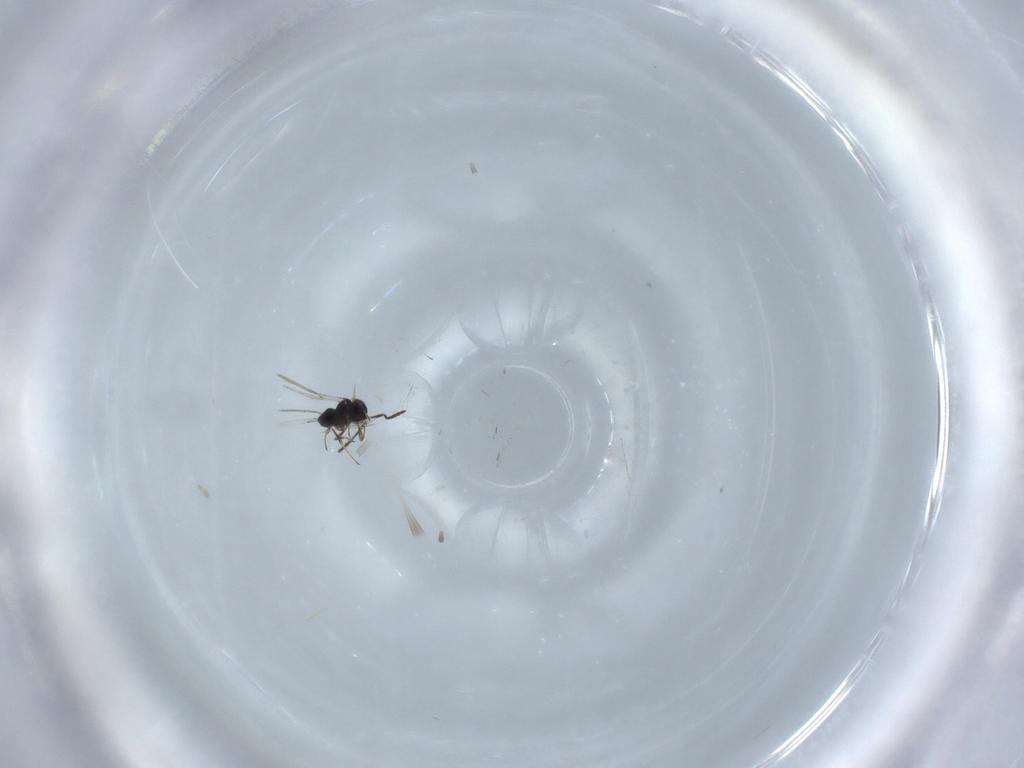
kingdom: Animalia
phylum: Arthropoda
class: Insecta
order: Hymenoptera
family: Scelionidae
